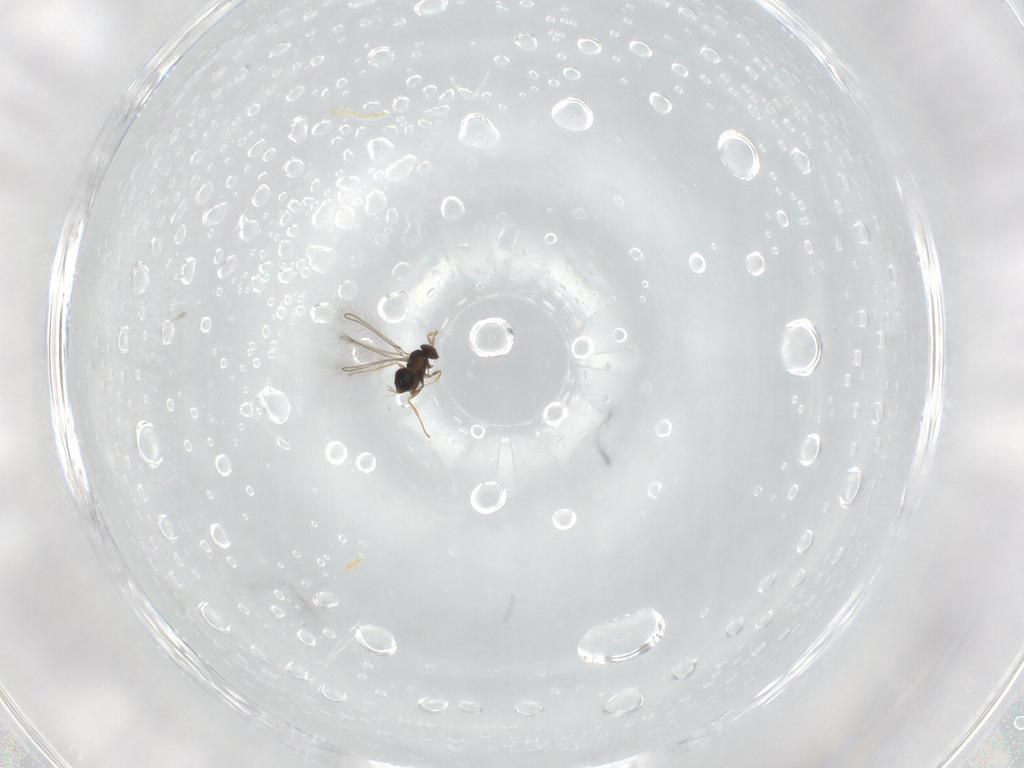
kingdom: Animalia
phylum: Arthropoda
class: Insecta
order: Hymenoptera
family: Mymaridae
